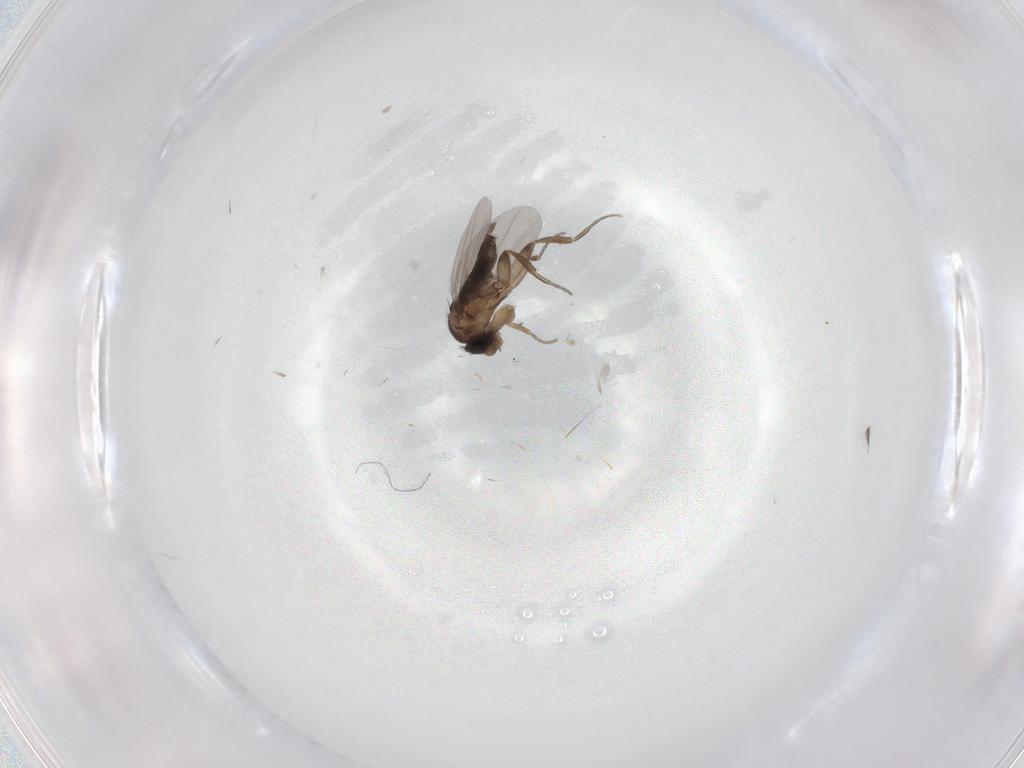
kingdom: Animalia
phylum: Arthropoda
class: Insecta
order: Diptera
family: Phoridae
